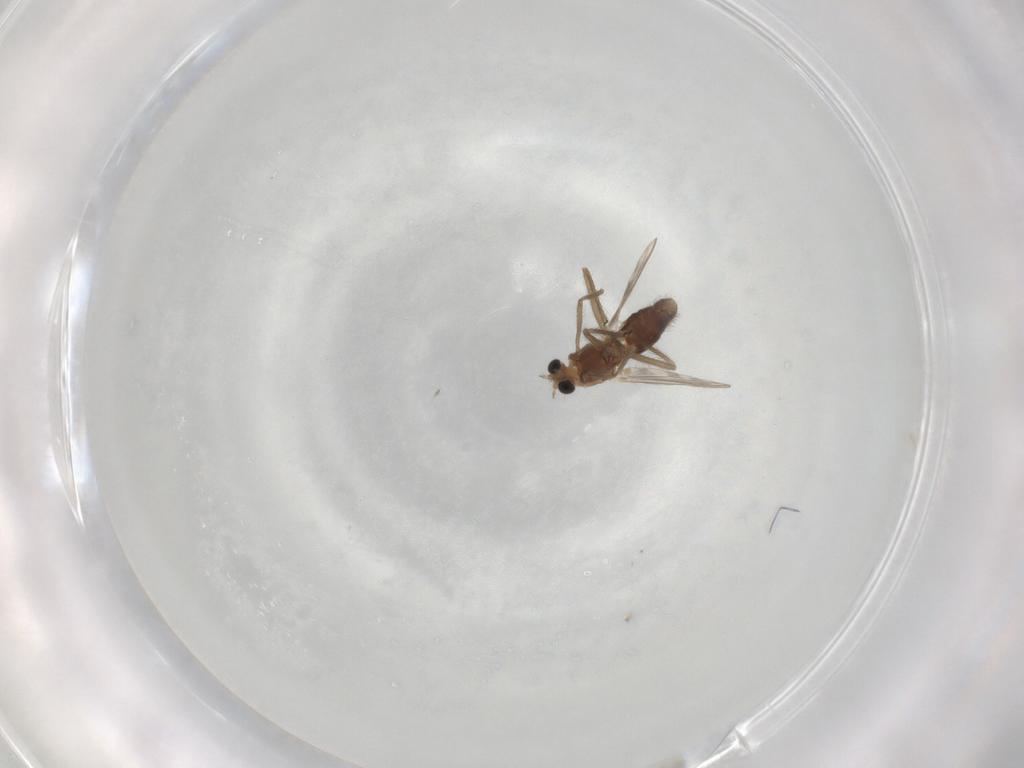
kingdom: Animalia
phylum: Arthropoda
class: Insecta
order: Diptera
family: Chironomidae
